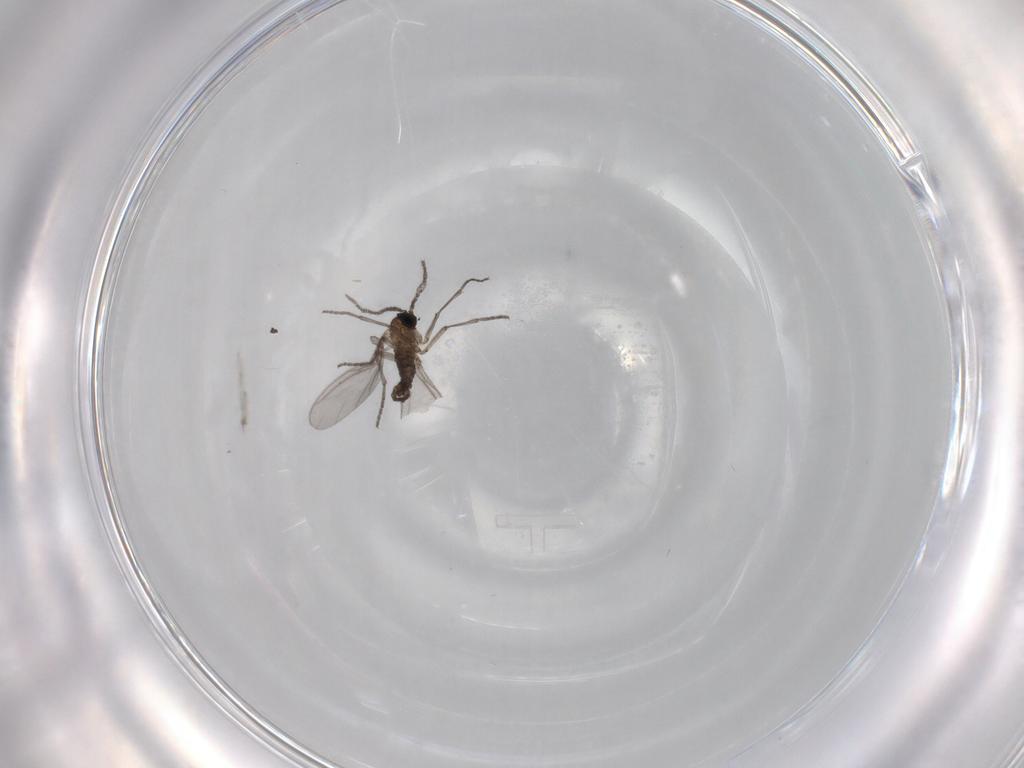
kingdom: Animalia
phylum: Arthropoda
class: Insecta
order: Diptera
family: Sciaridae
